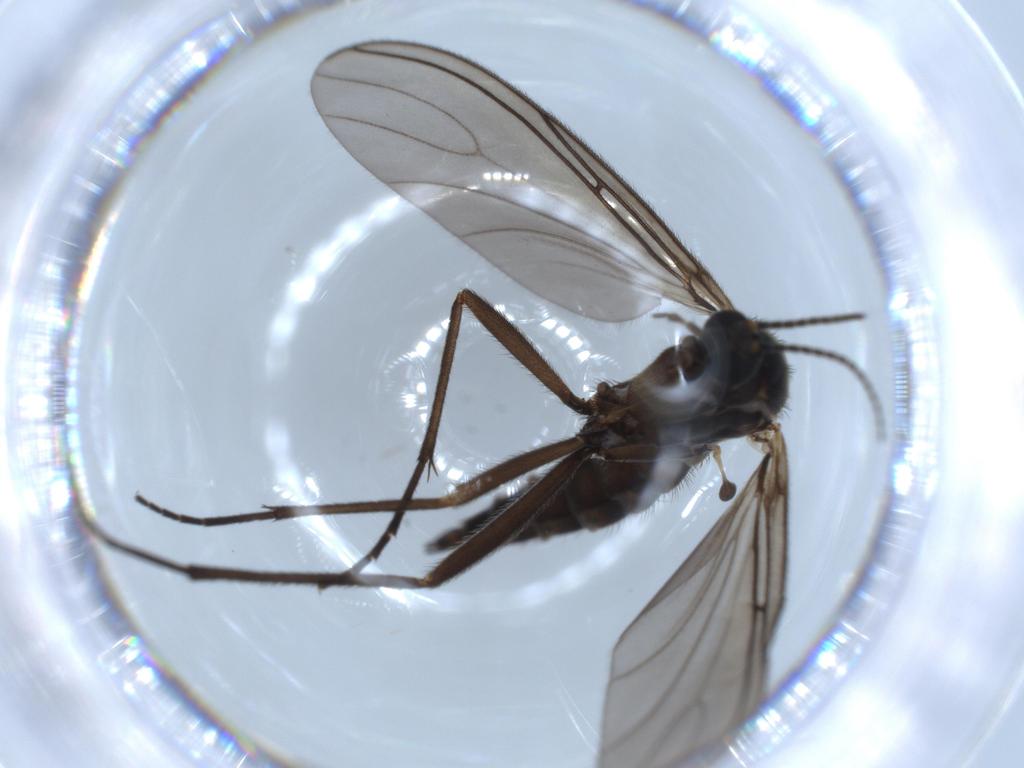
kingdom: Animalia
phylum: Arthropoda
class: Insecta
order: Diptera
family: Sciaridae
